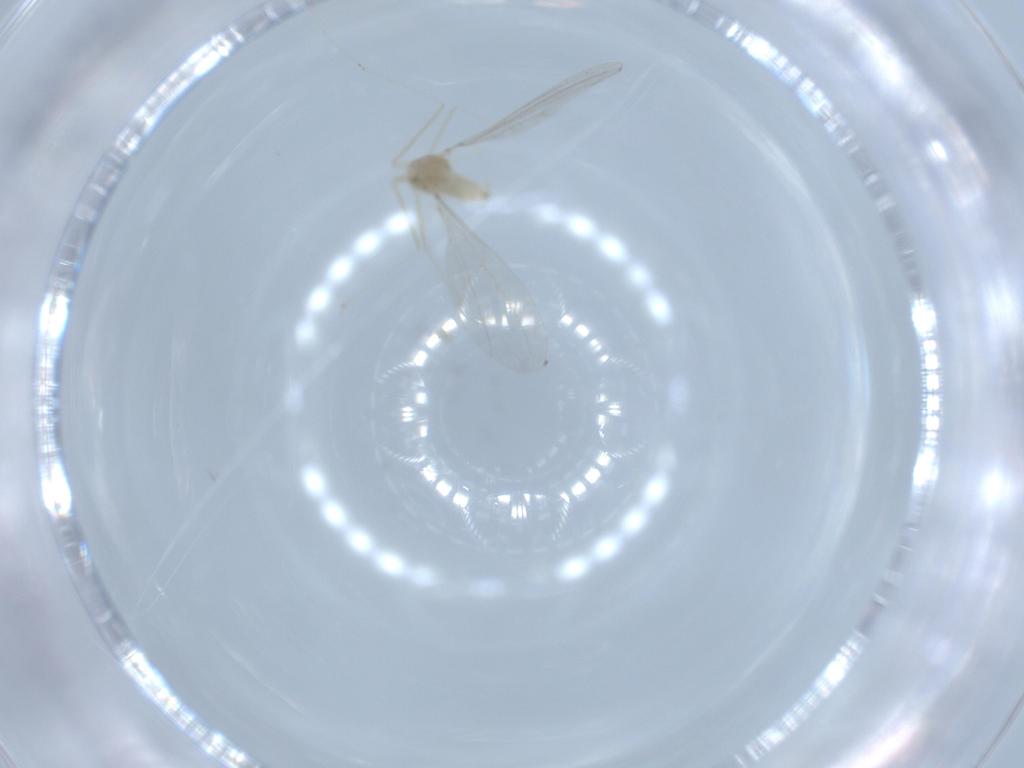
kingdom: Animalia
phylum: Arthropoda
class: Insecta
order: Diptera
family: Cecidomyiidae
